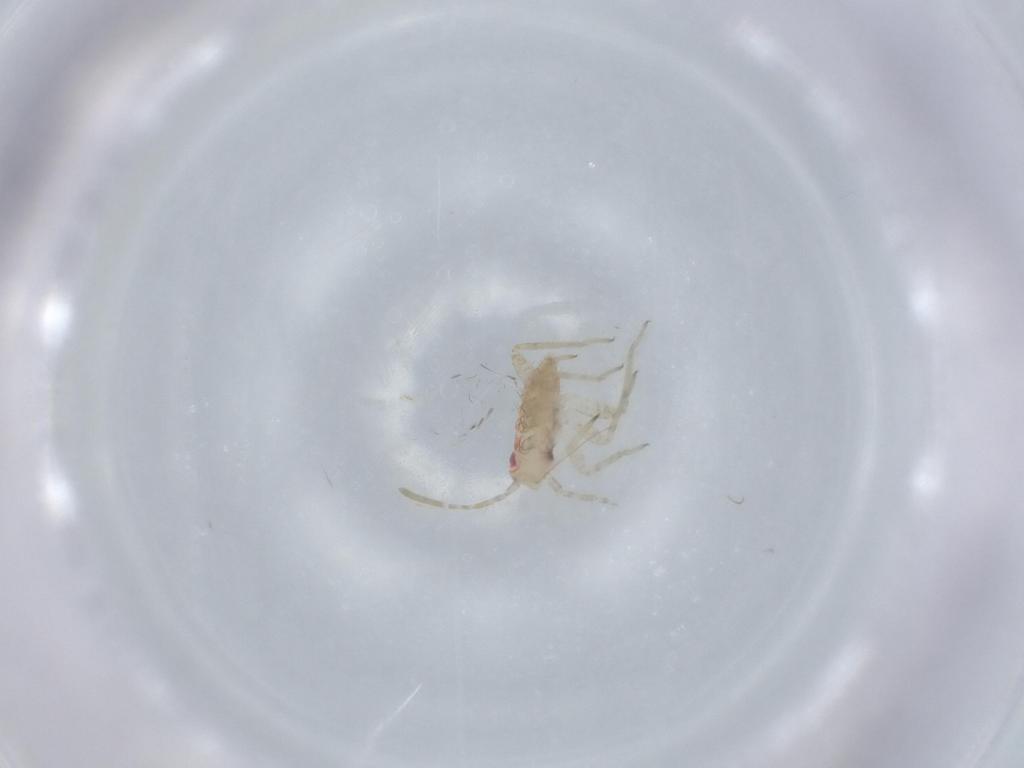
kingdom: Animalia
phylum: Arthropoda
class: Insecta
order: Hemiptera
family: Miridae
